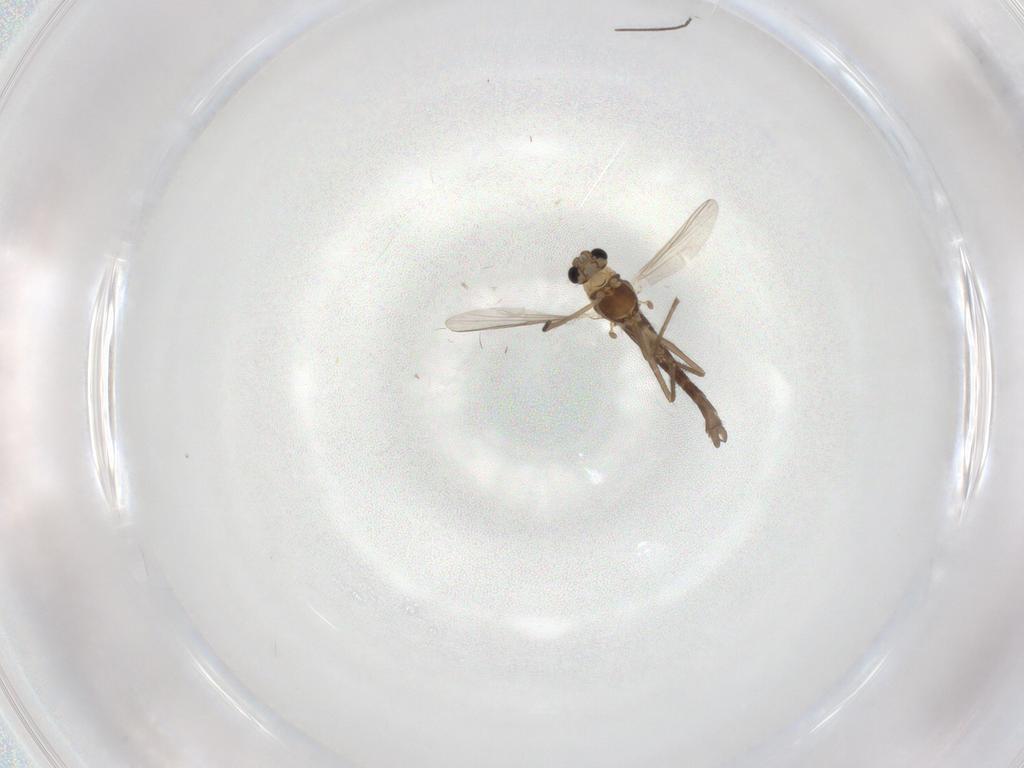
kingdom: Animalia
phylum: Arthropoda
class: Insecta
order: Diptera
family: Chironomidae
